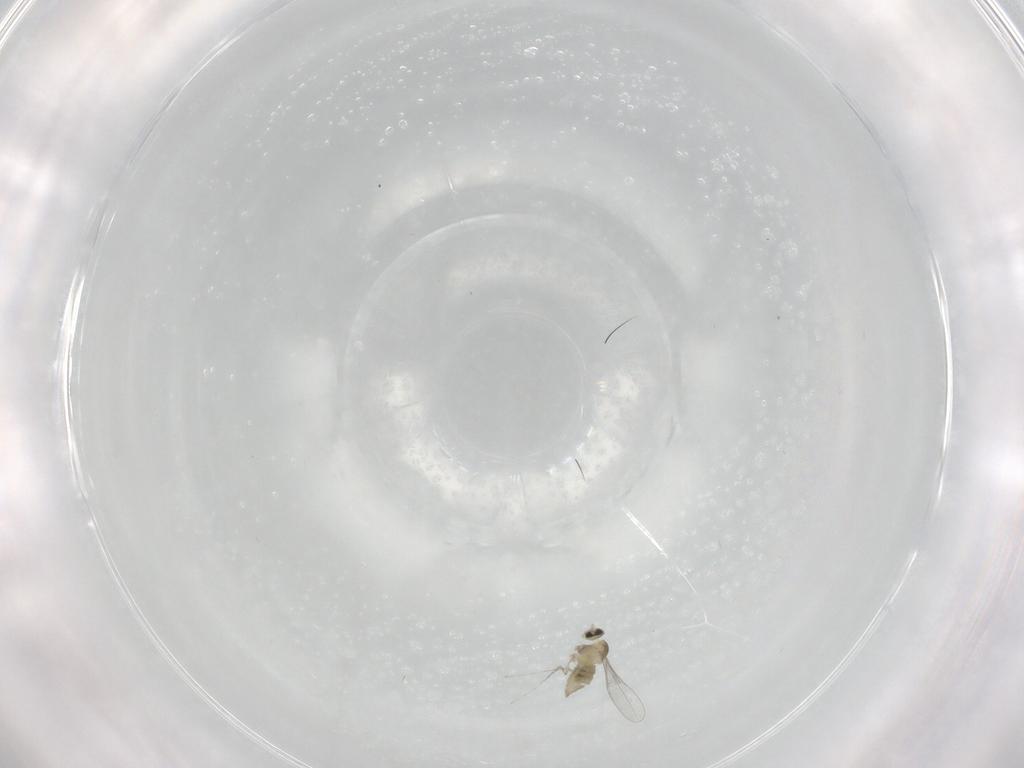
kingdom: Animalia
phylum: Arthropoda
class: Insecta
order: Diptera
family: Cecidomyiidae
